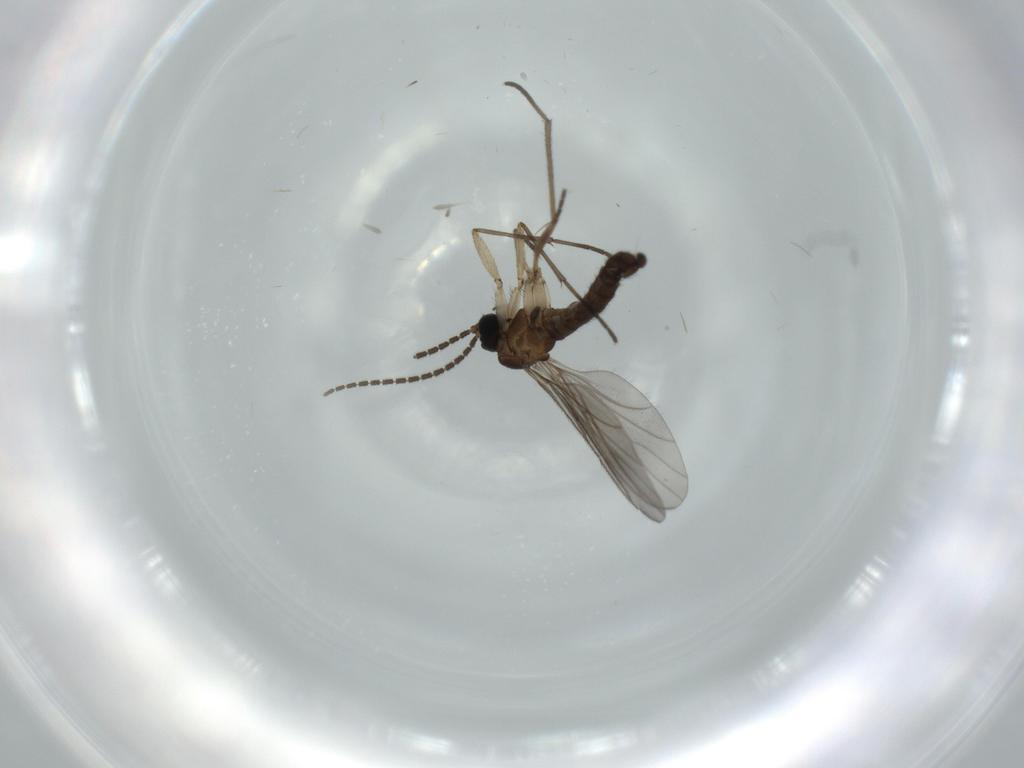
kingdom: Animalia
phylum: Arthropoda
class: Insecta
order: Diptera
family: Sciaridae
